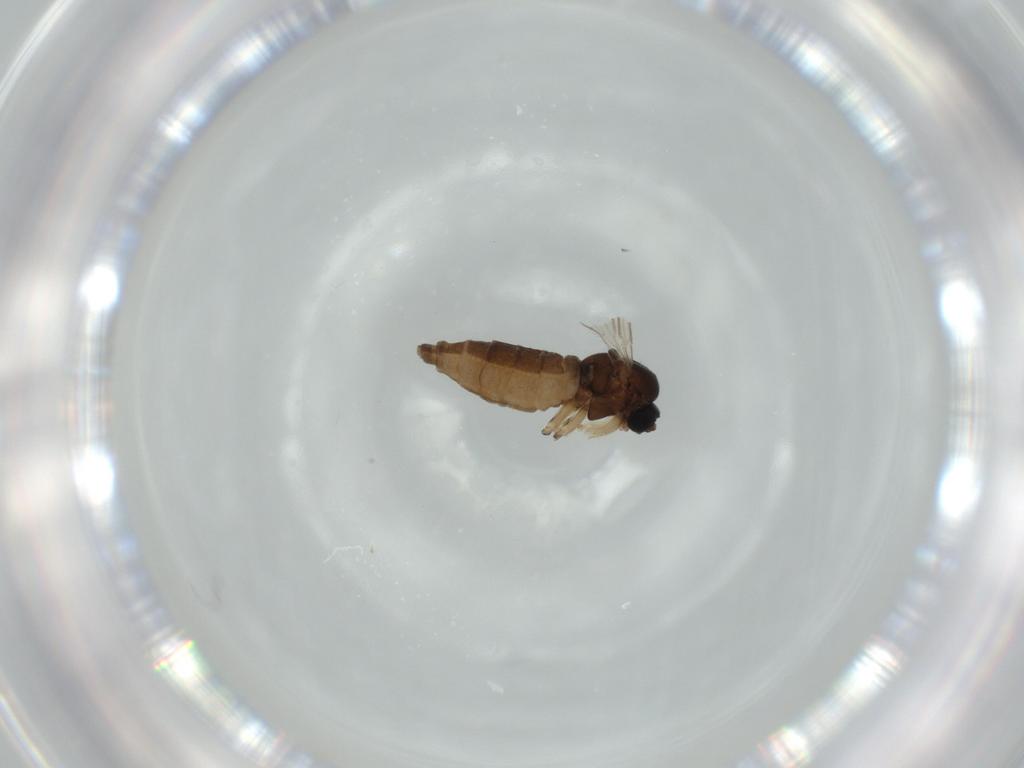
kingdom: Animalia
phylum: Arthropoda
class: Insecta
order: Diptera
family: Sciaridae
